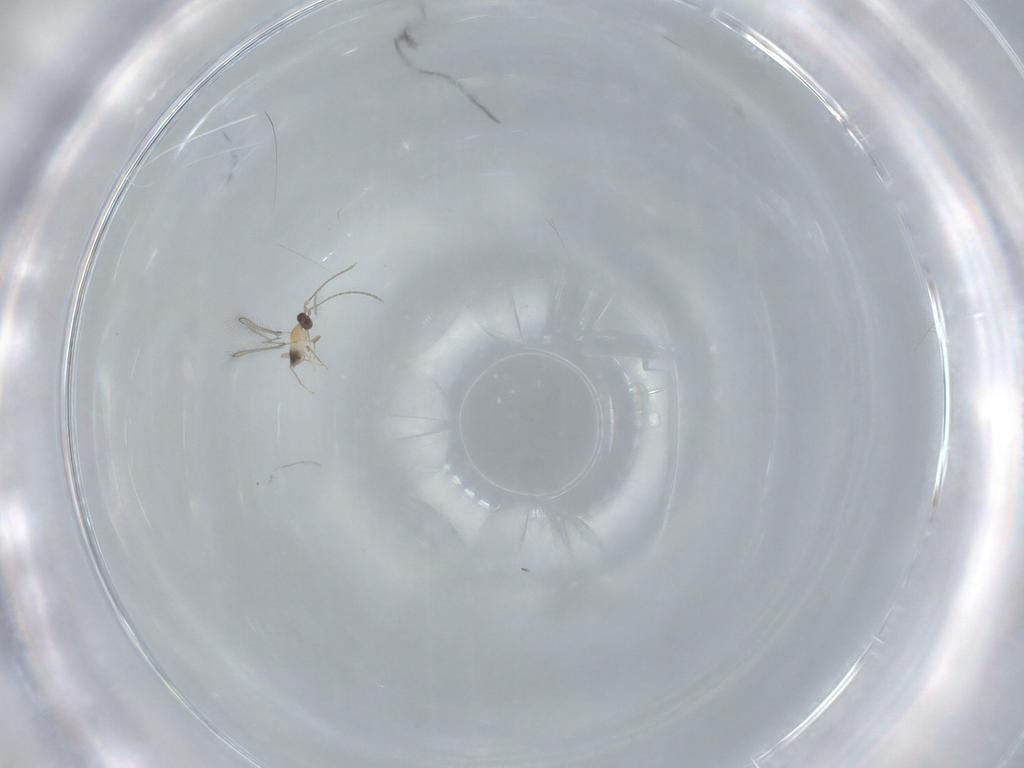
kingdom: Animalia
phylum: Arthropoda
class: Insecta
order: Hymenoptera
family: Mymaridae
